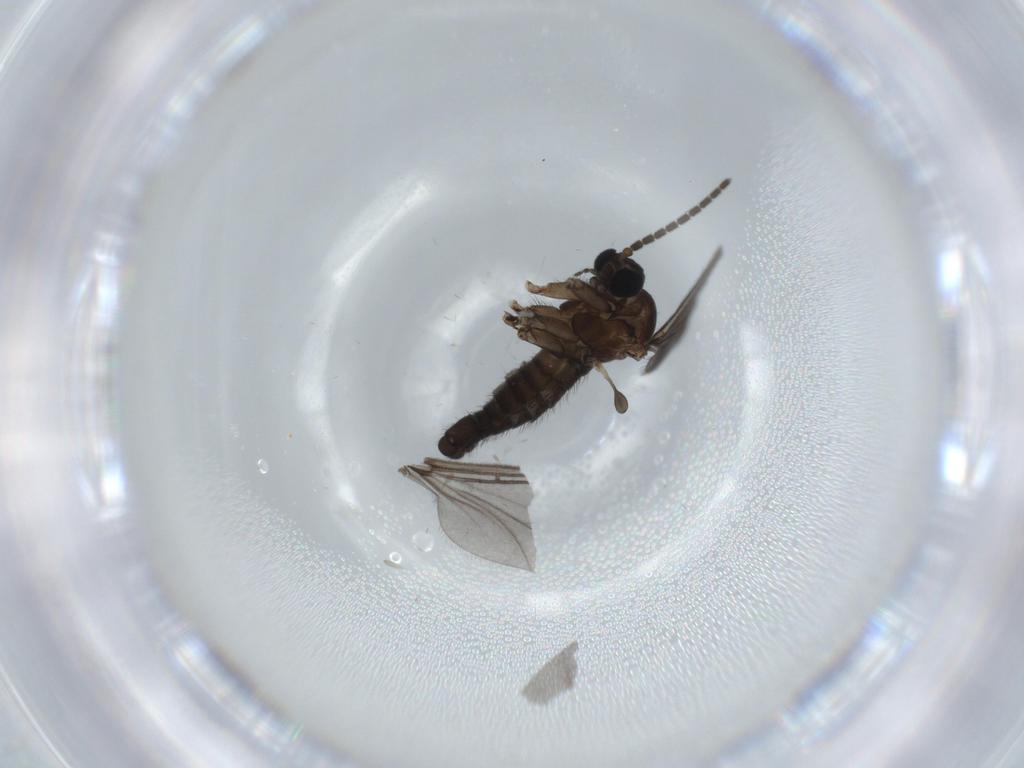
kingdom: Animalia
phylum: Arthropoda
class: Insecta
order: Diptera
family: Sciaridae
